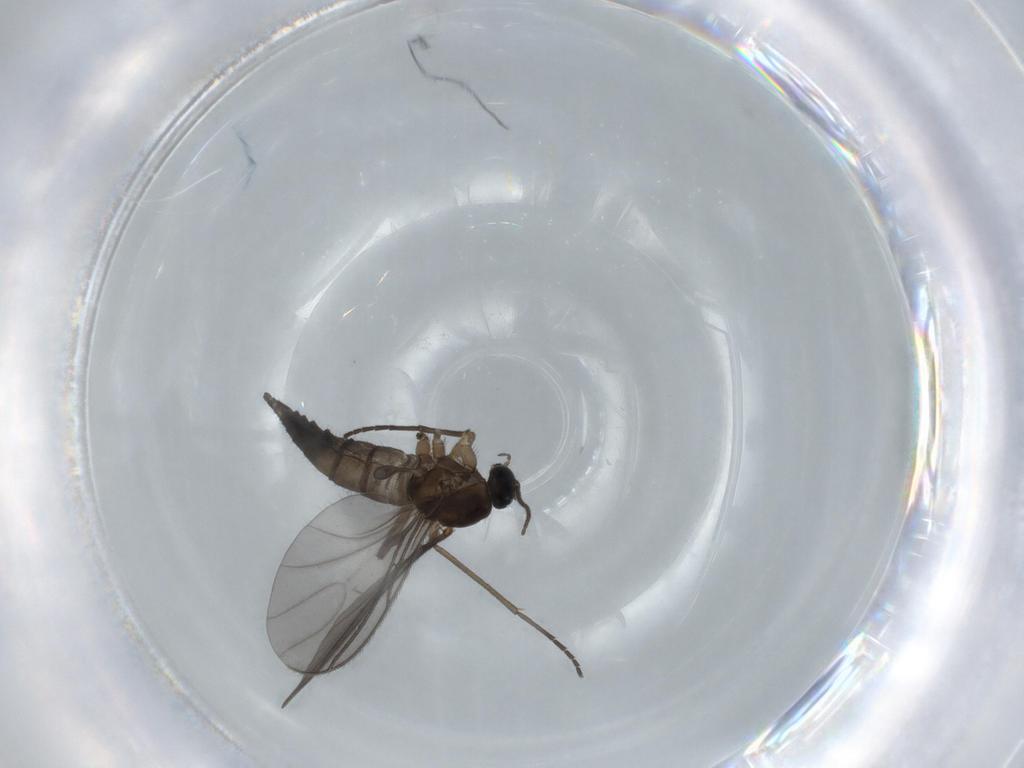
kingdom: Animalia
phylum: Arthropoda
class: Insecta
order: Diptera
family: Sciaridae
